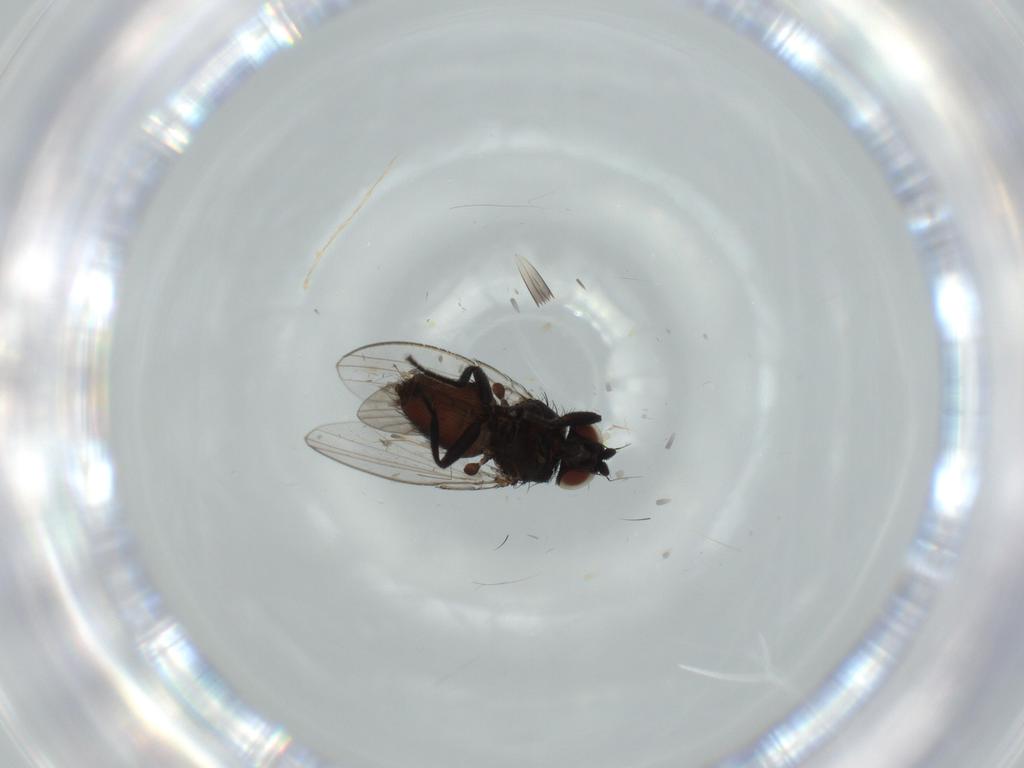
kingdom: Animalia
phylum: Arthropoda
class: Insecta
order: Diptera
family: Milichiidae
